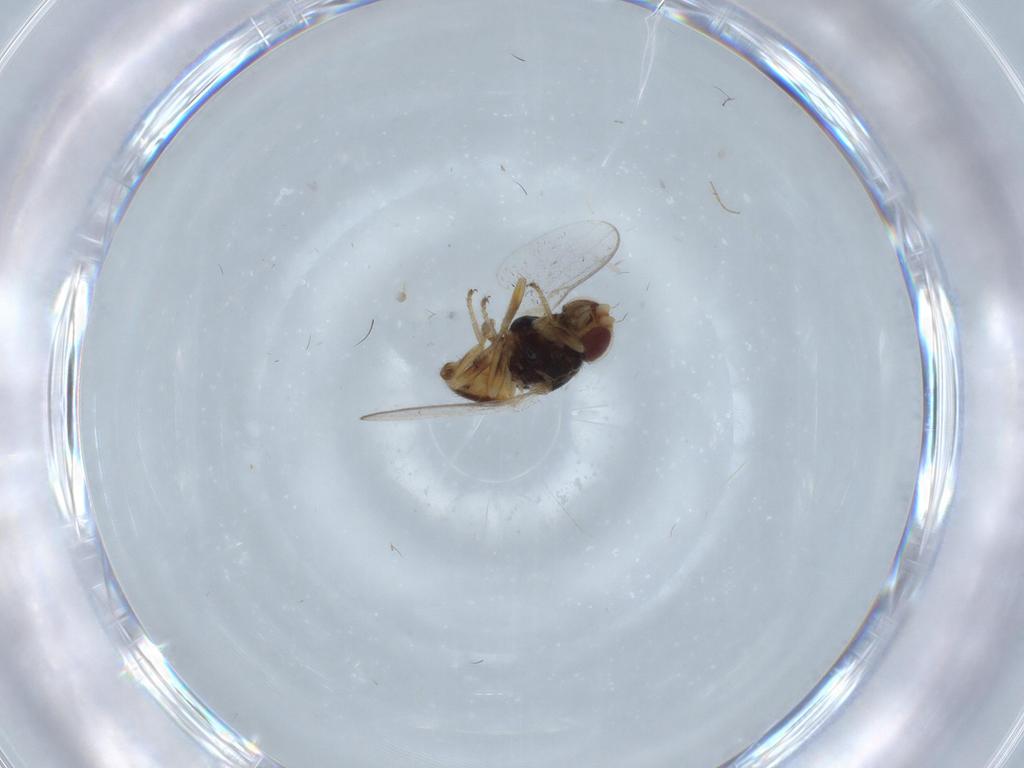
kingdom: Animalia
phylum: Arthropoda
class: Insecta
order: Diptera
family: Chloropidae
